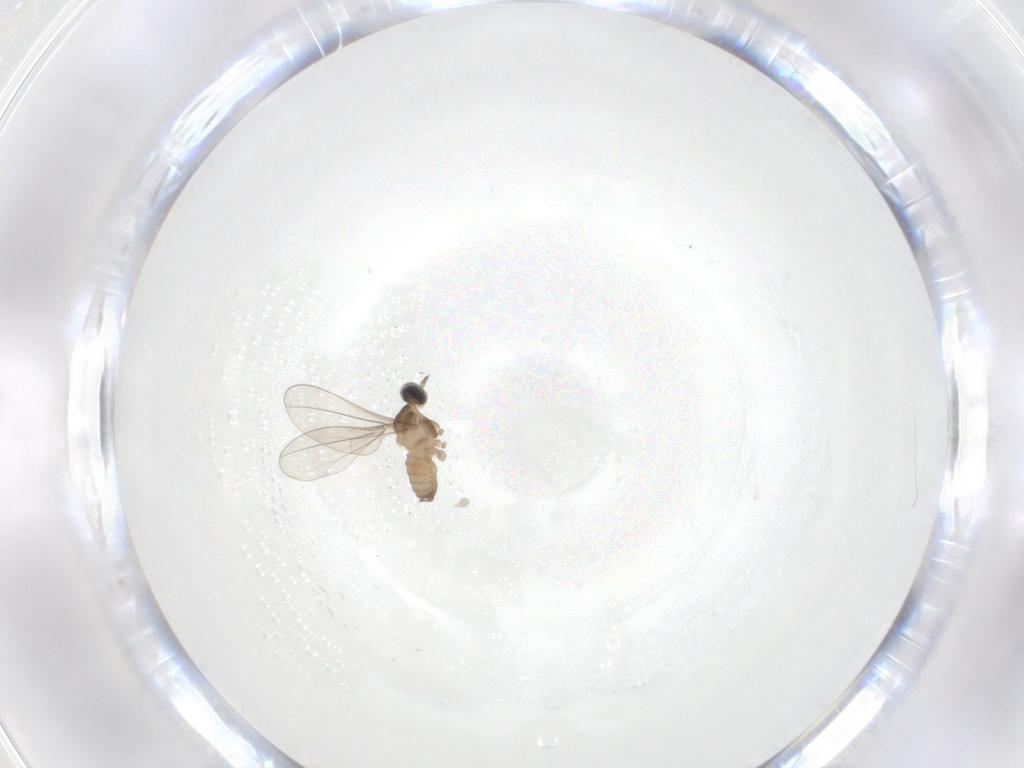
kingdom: Animalia
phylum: Arthropoda
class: Insecta
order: Diptera
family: Cecidomyiidae
